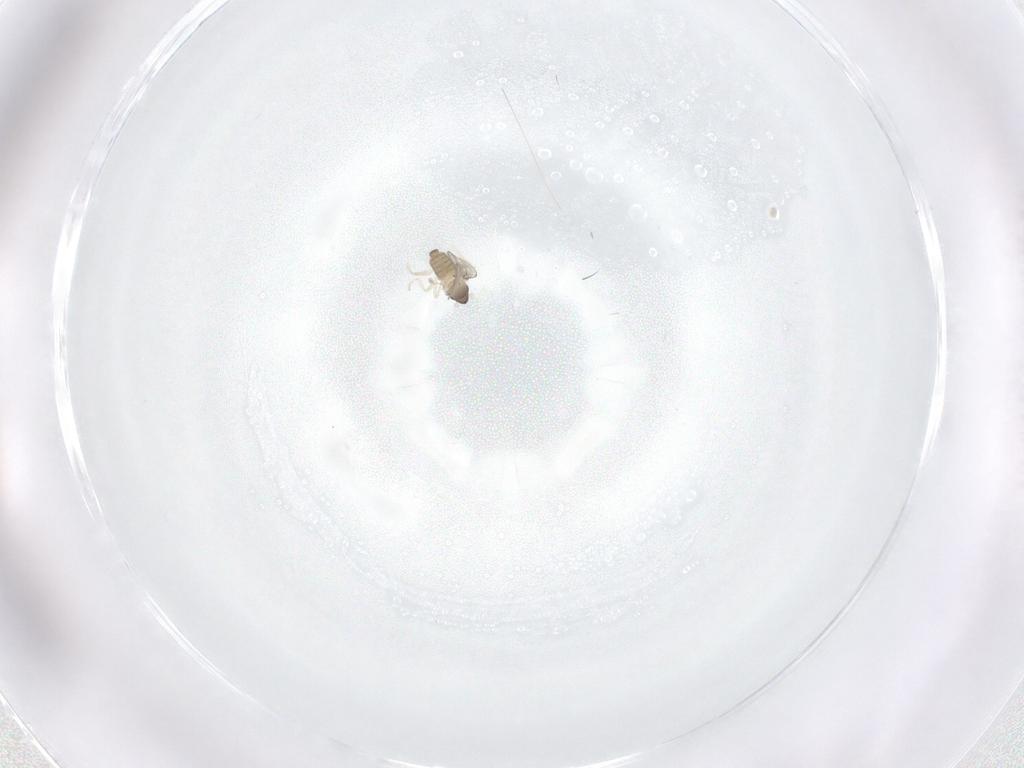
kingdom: Animalia
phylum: Arthropoda
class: Insecta
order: Diptera
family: Cecidomyiidae
